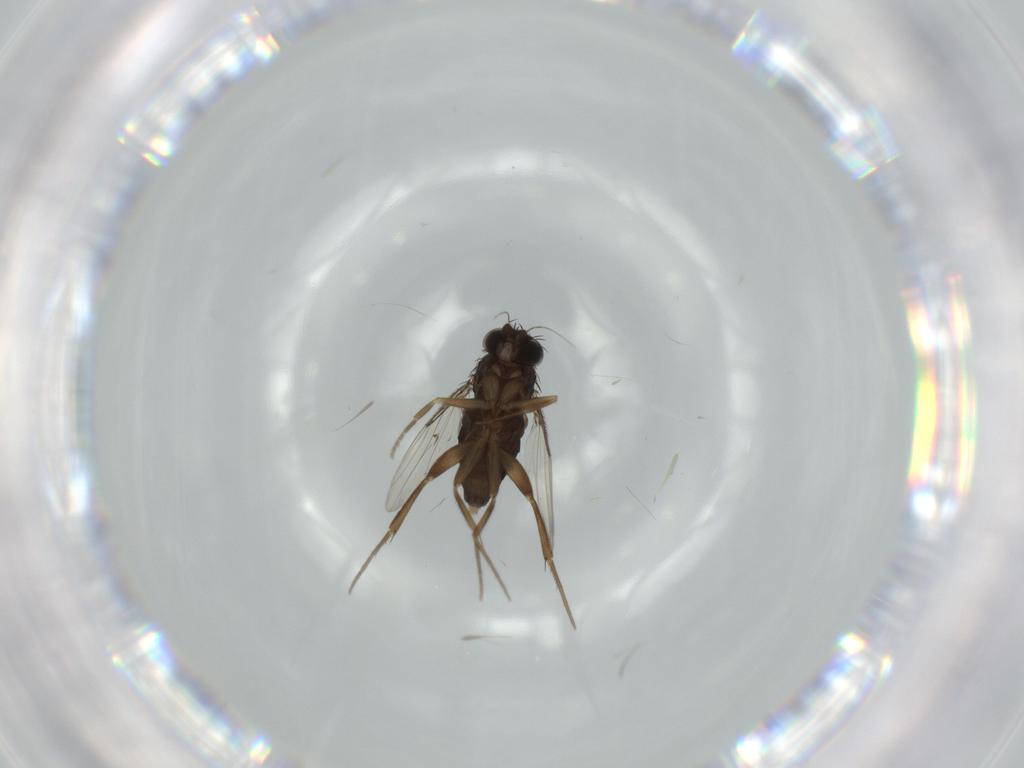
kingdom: Animalia
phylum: Arthropoda
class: Insecta
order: Diptera
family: Phoridae
